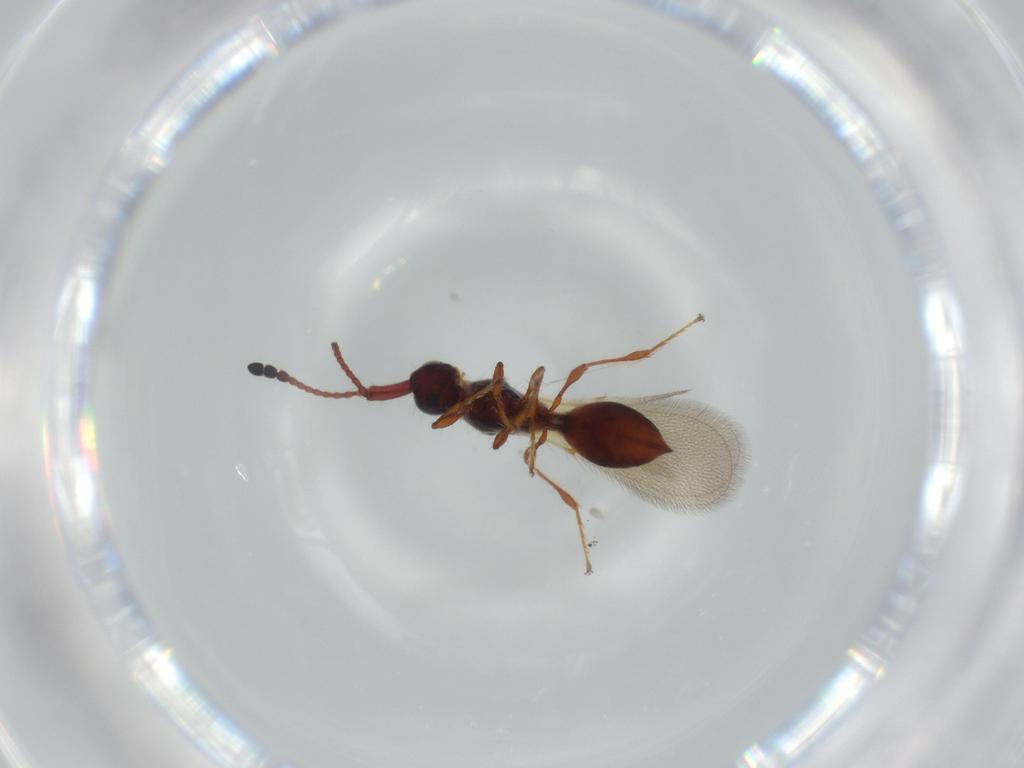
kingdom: Animalia
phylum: Arthropoda
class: Insecta
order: Hymenoptera
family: Diapriidae
